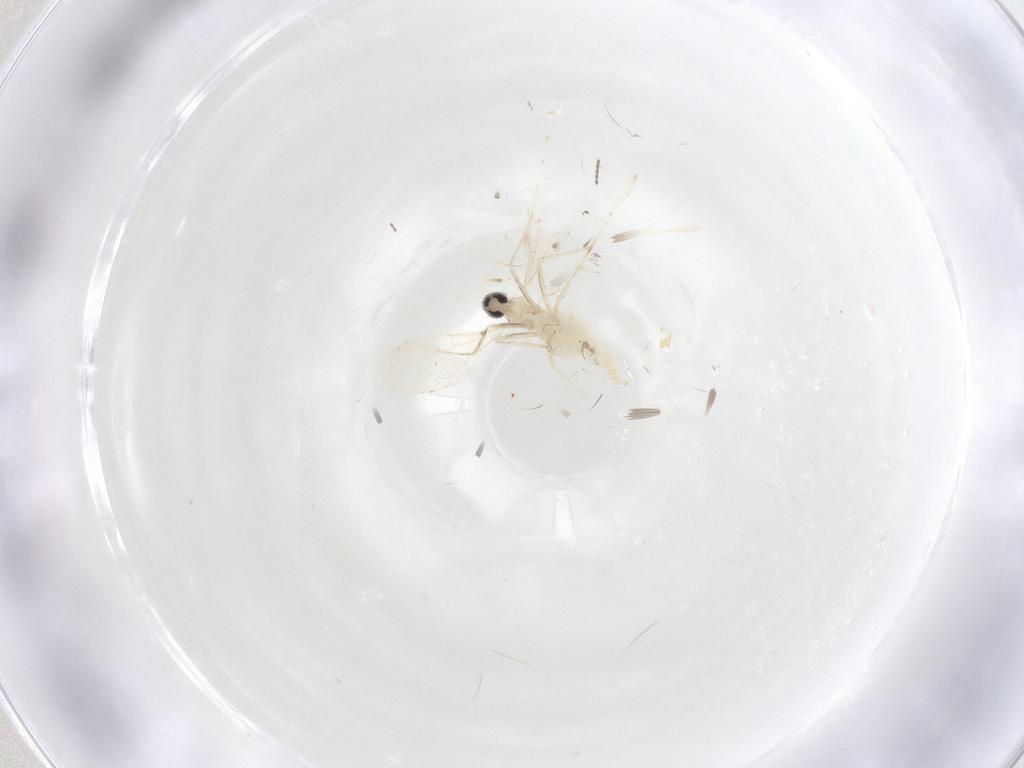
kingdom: Animalia
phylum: Arthropoda
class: Insecta
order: Diptera
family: Cecidomyiidae
